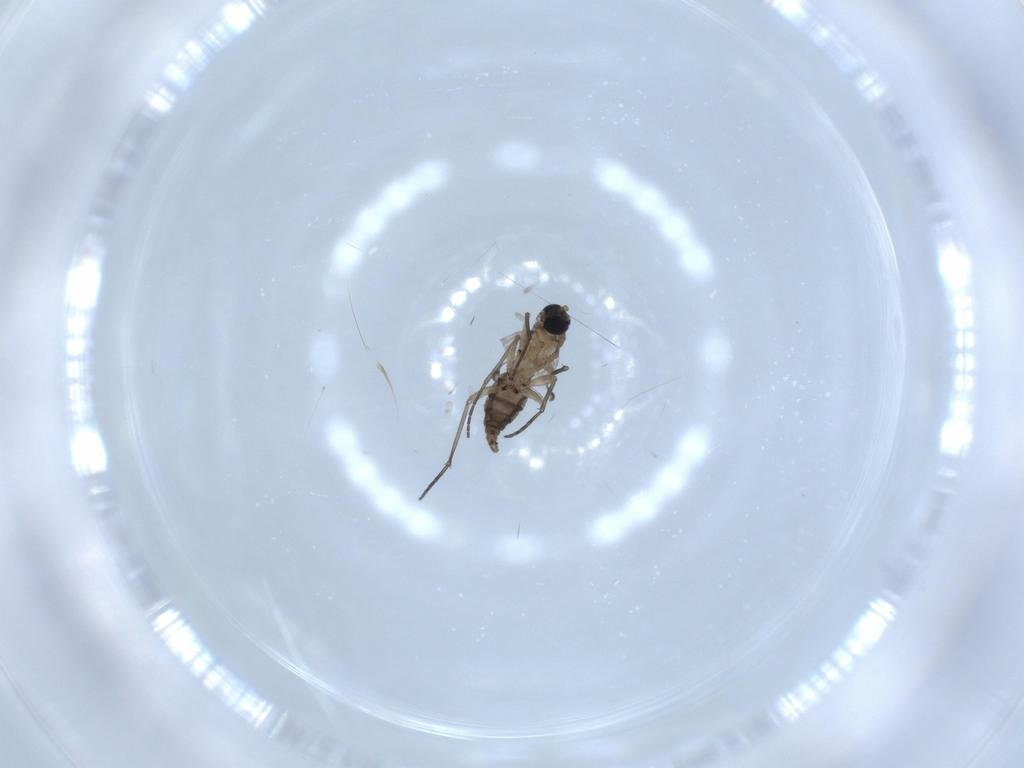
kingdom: Animalia
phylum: Arthropoda
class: Insecta
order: Diptera
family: Sciaridae
